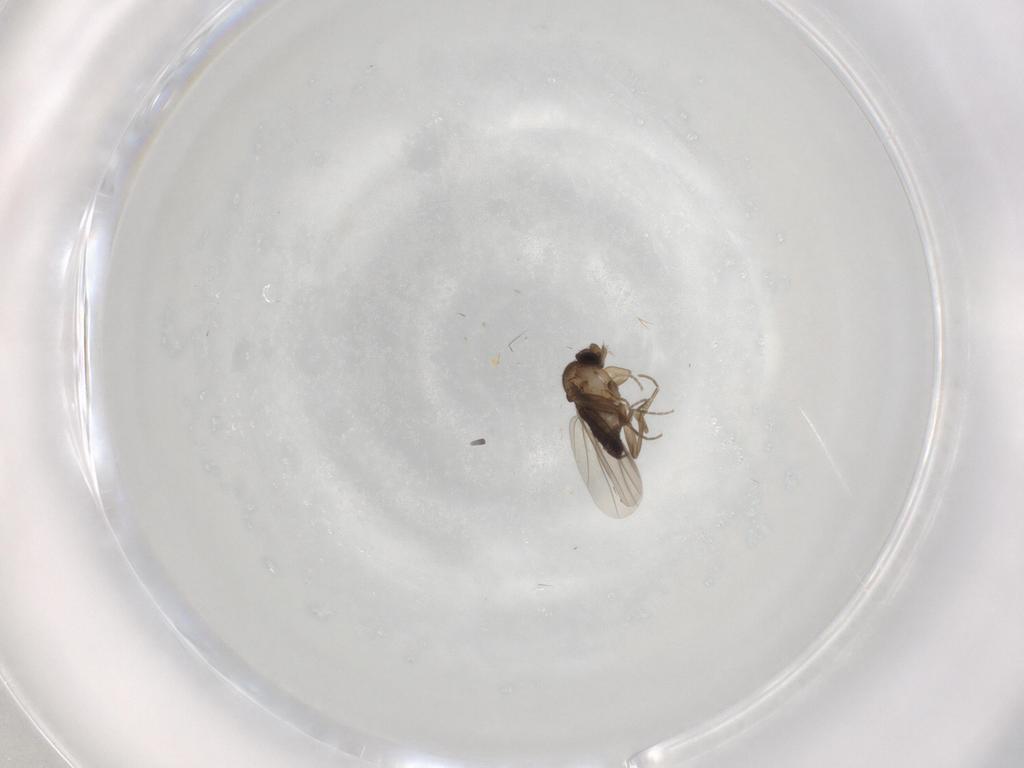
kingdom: Animalia
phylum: Arthropoda
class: Insecta
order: Diptera
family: Phoridae
